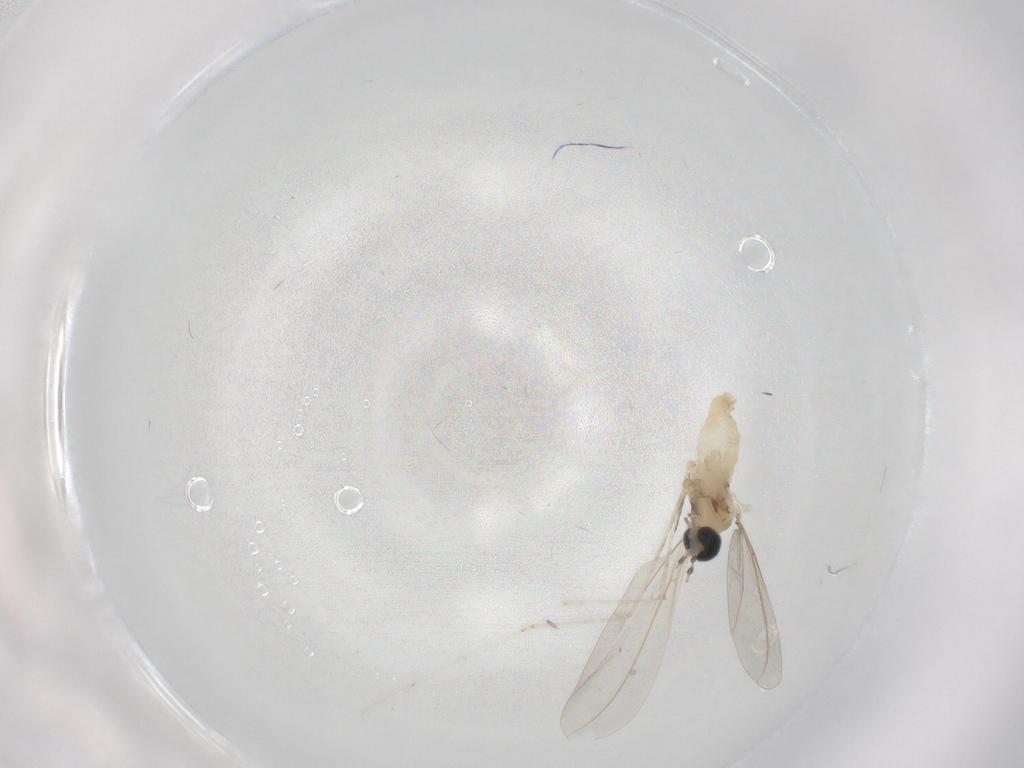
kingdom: Animalia
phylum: Arthropoda
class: Insecta
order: Diptera
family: Cecidomyiidae
